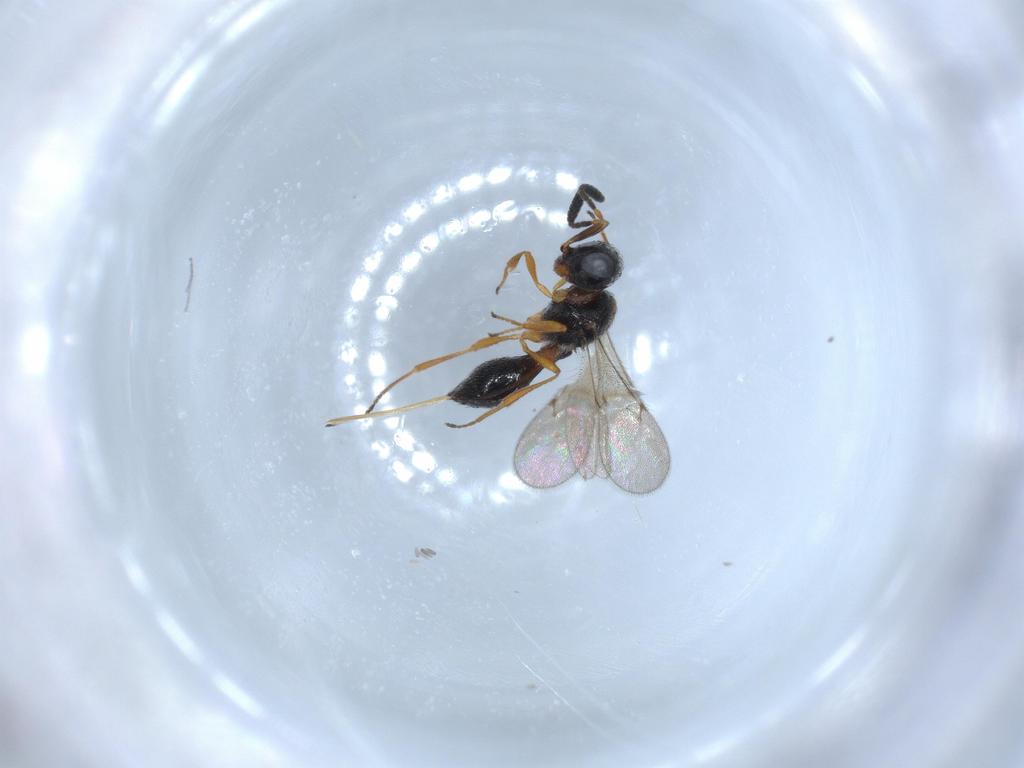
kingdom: Animalia
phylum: Arthropoda
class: Insecta
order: Hymenoptera
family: Scelionidae
